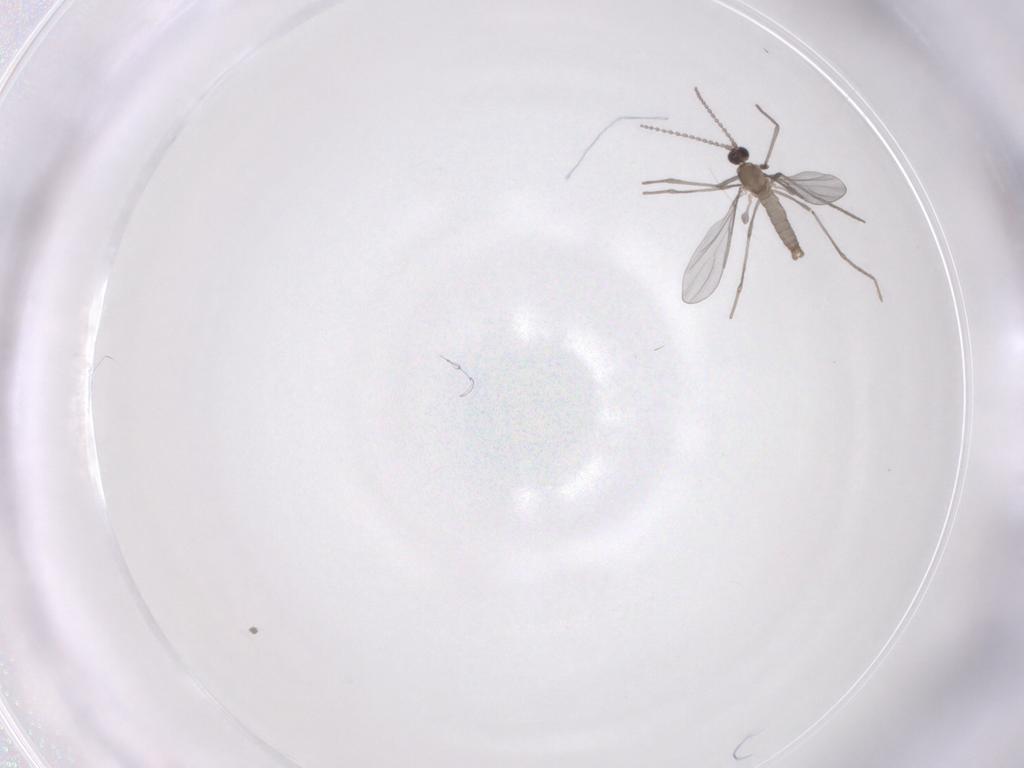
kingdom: Animalia
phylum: Arthropoda
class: Insecta
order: Diptera
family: Cecidomyiidae
